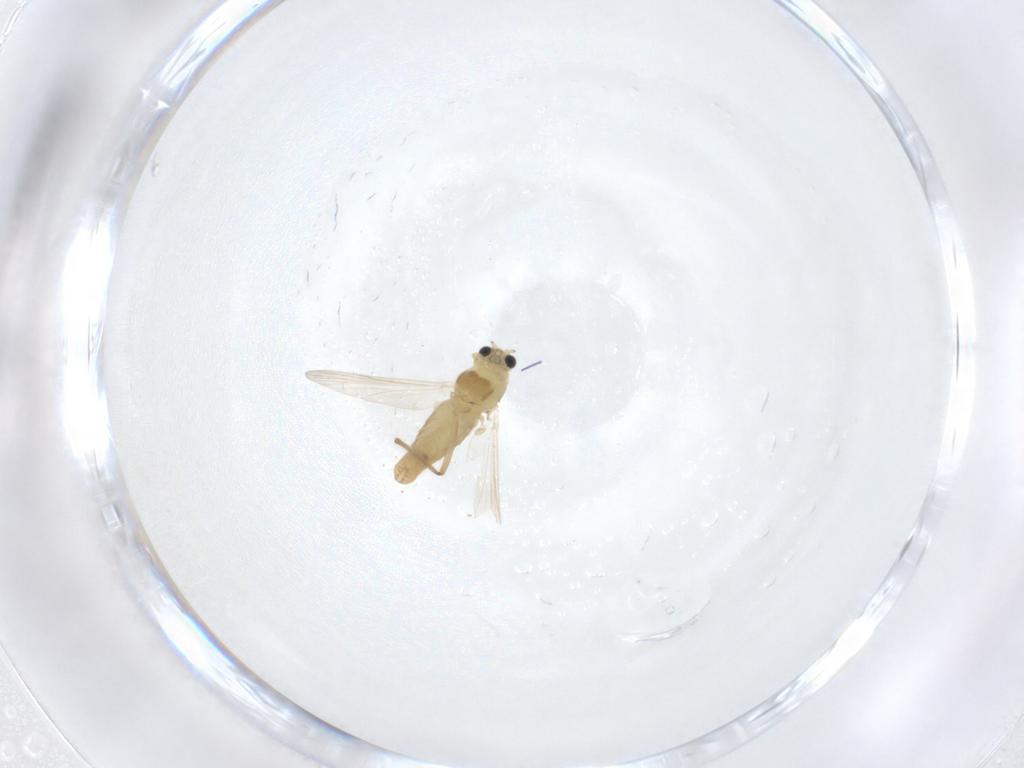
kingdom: Animalia
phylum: Arthropoda
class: Insecta
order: Diptera
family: Chironomidae
